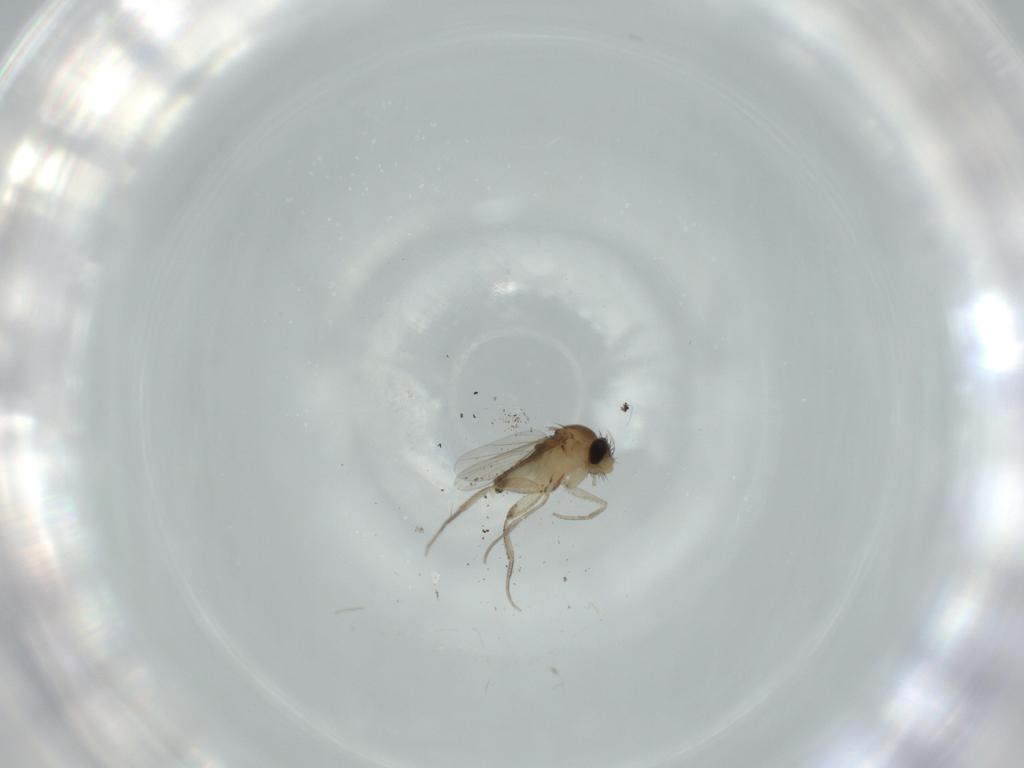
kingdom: Animalia
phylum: Arthropoda
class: Insecta
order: Diptera
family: Phoridae
